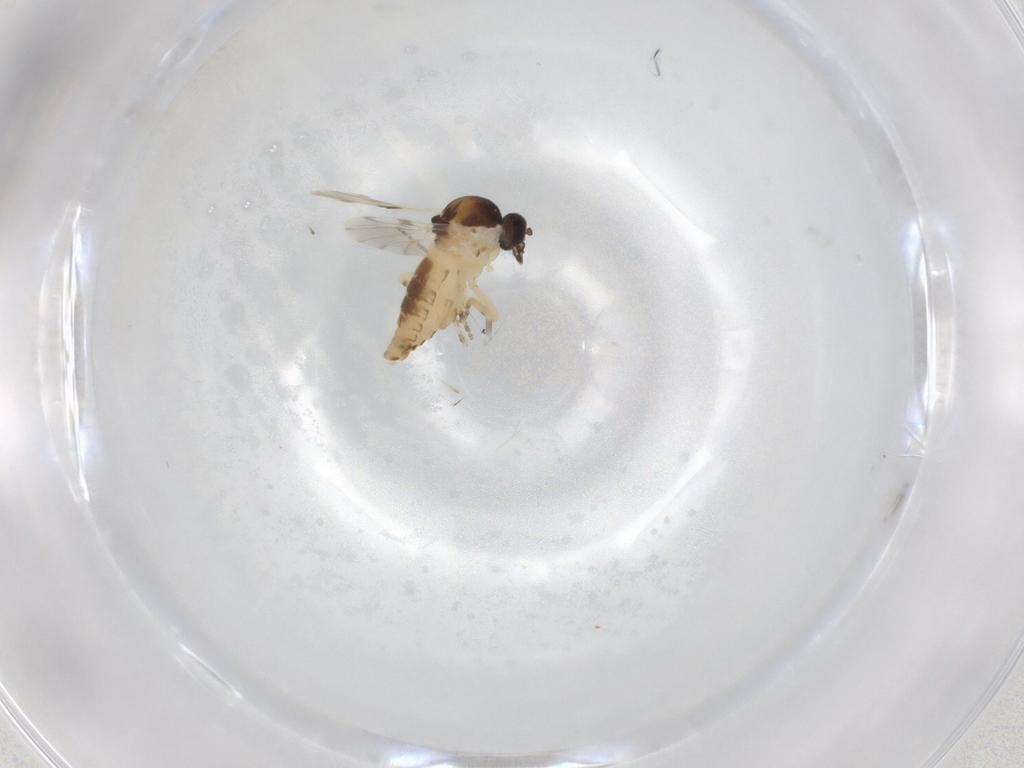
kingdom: Animalia
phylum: Arthropoda
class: Insecta
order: Diptera
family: Ceratopogonidae
